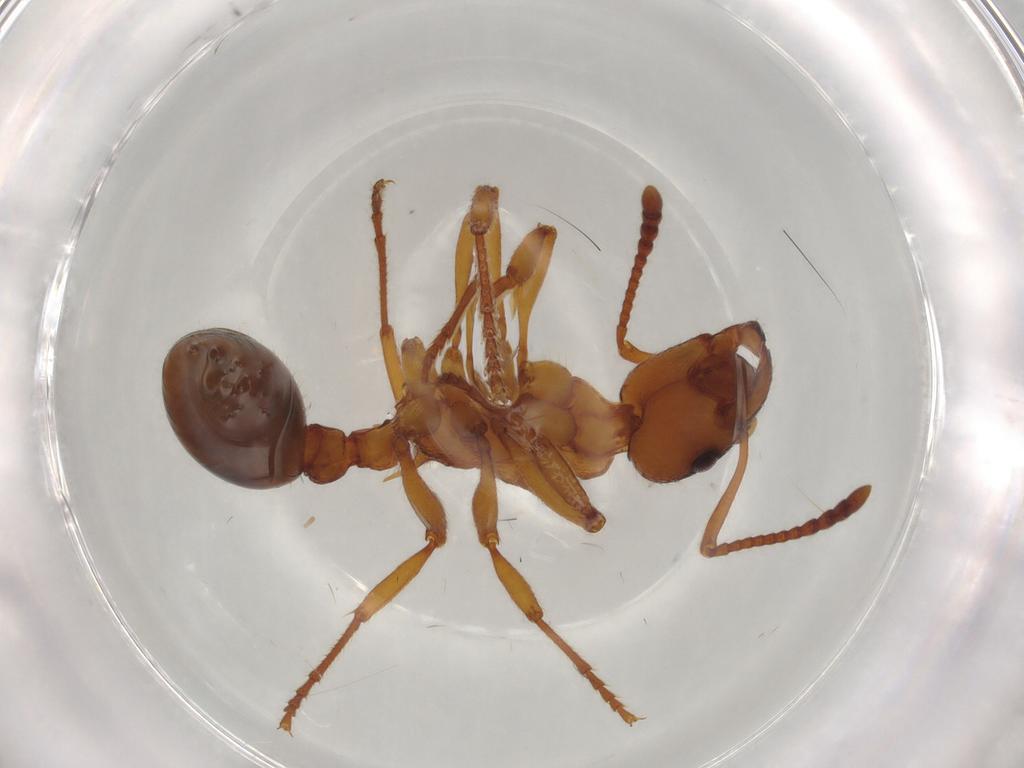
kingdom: Animalia
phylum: Arthropoda
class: Insecta
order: Hymenoptera
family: Formicidae
